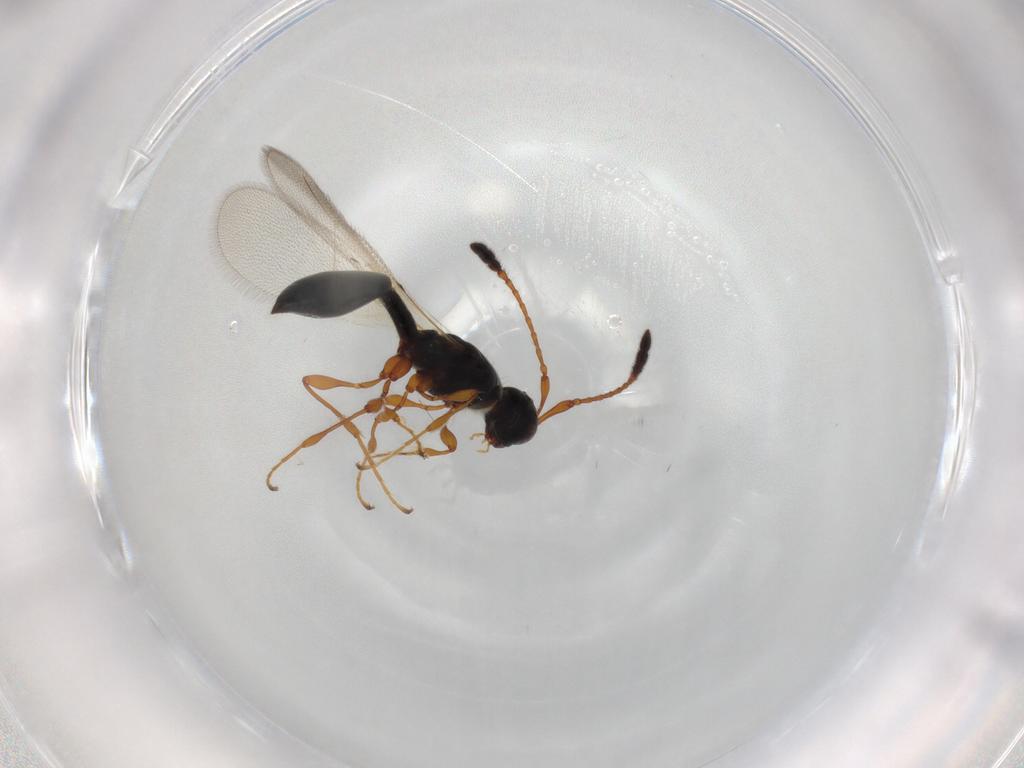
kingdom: Animalia
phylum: Arthropoda
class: Insecta
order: Hymenoptera
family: Diapriidae
